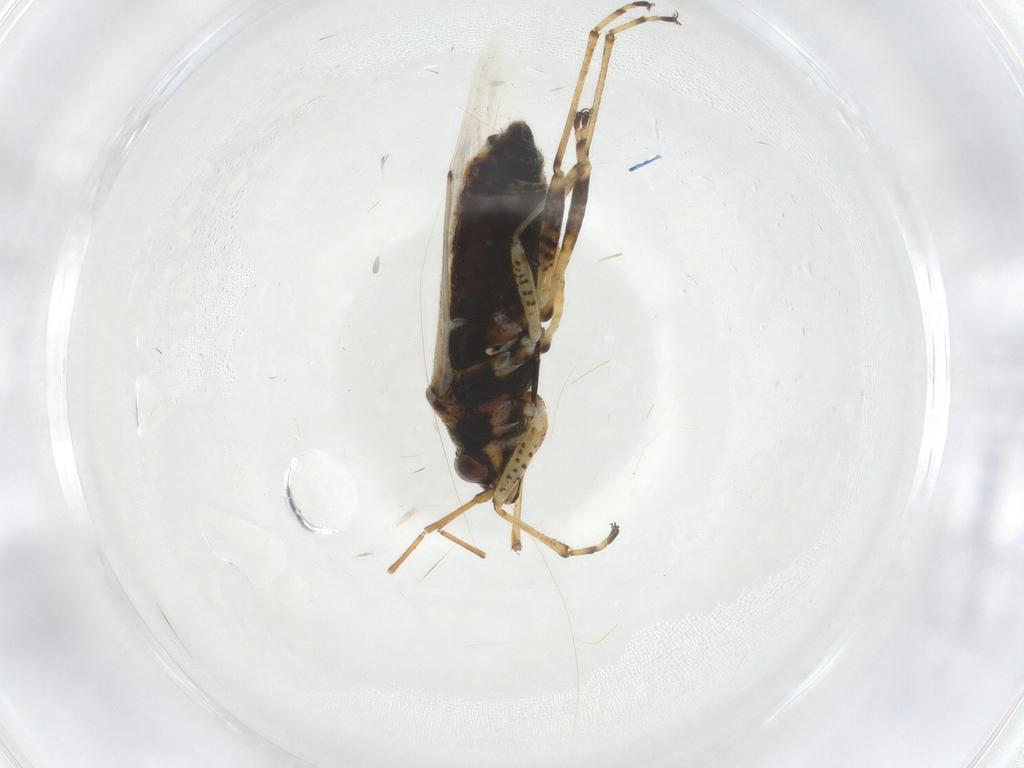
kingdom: Animalia
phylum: Arthropoda
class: Insecta
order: Hemiptera
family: Lygaeidae
